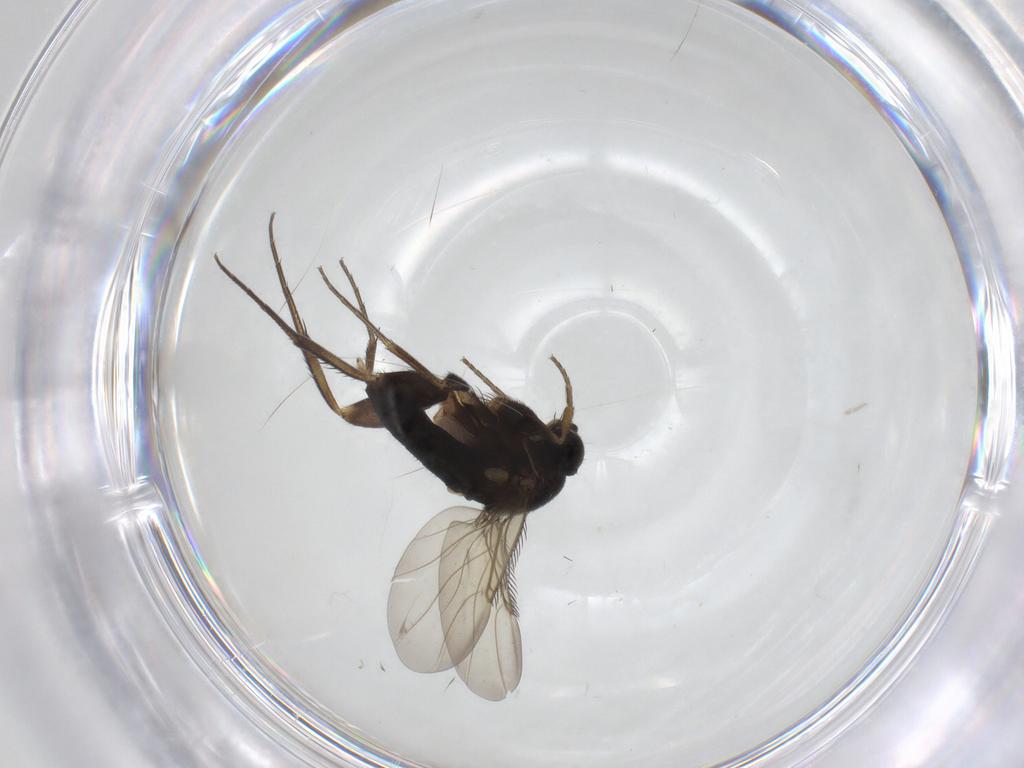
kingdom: Animalia
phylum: Arthropoda
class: Insecta
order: Diptera
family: Phoridae
